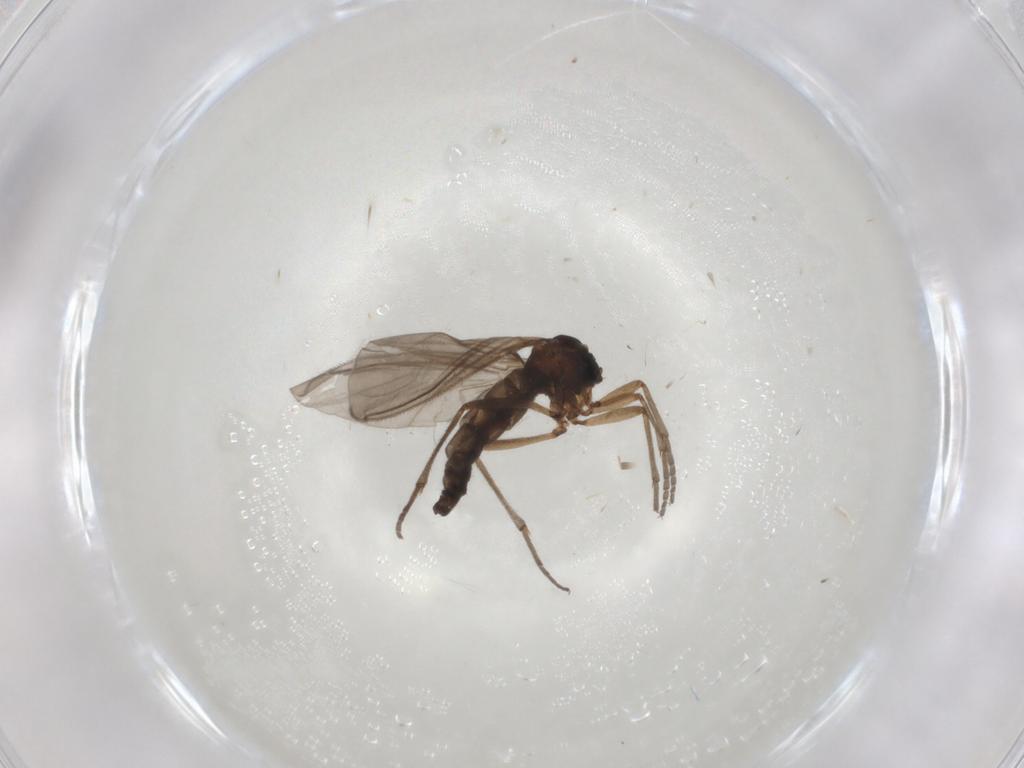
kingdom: Animalia
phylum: Arthropoda
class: Insecta
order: Diptera
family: Sciaridae
